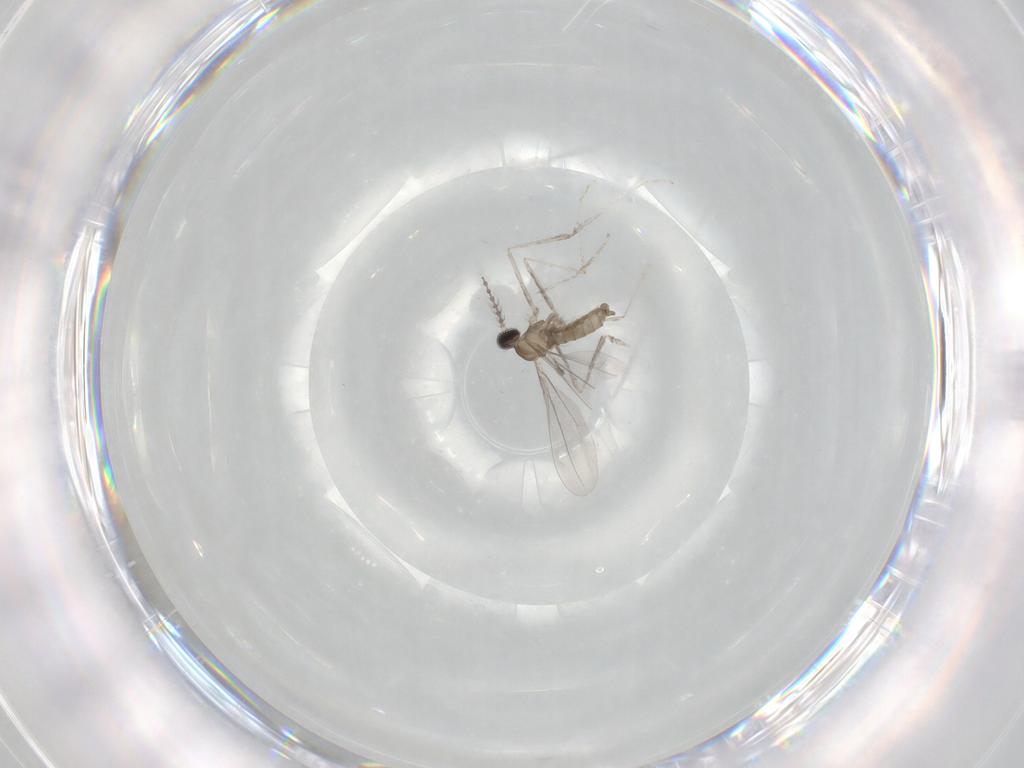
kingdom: Animalia
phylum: Arthropoda
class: Insecta
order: Diptera
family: Cecidomyiidae
